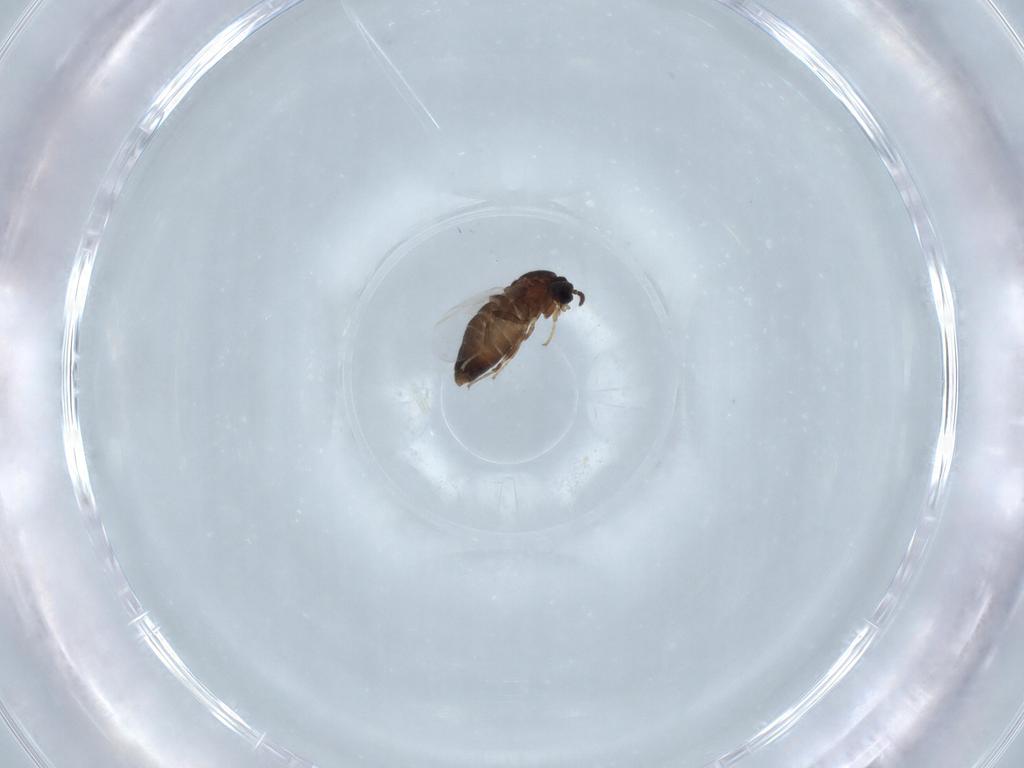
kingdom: Animalia
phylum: Arthropoda
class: Insecta
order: Diptera
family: Scatopsidae
